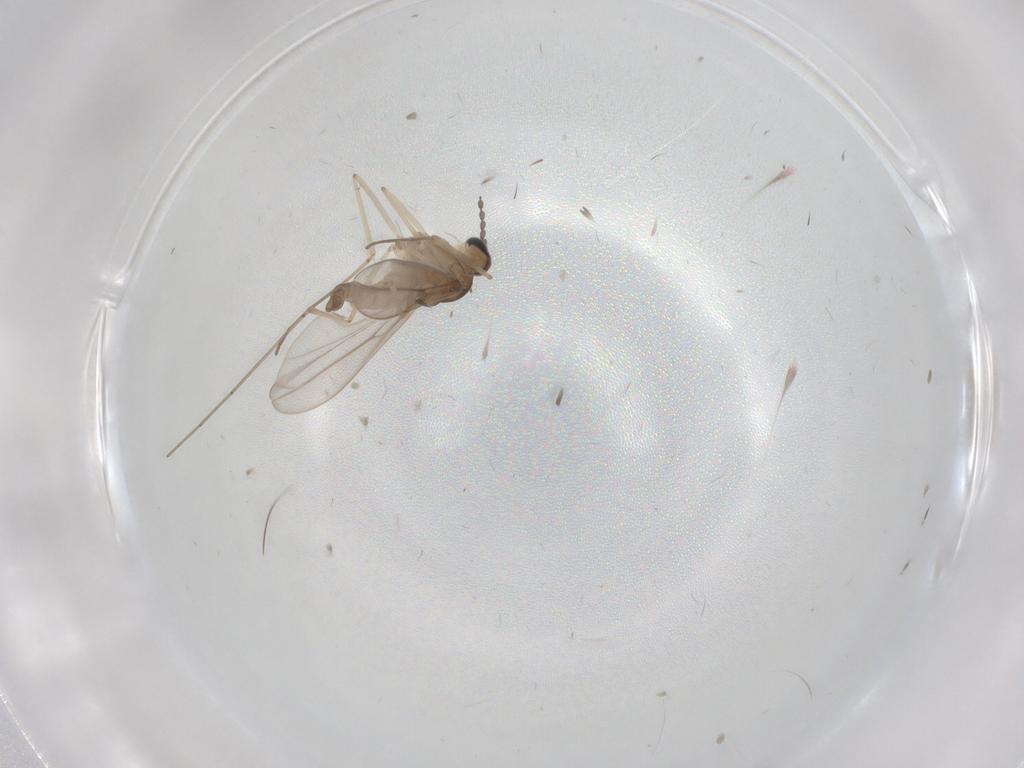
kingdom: Animalia
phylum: Arthropoda
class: Insecta
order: Diptera
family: Cecidomyiidae
